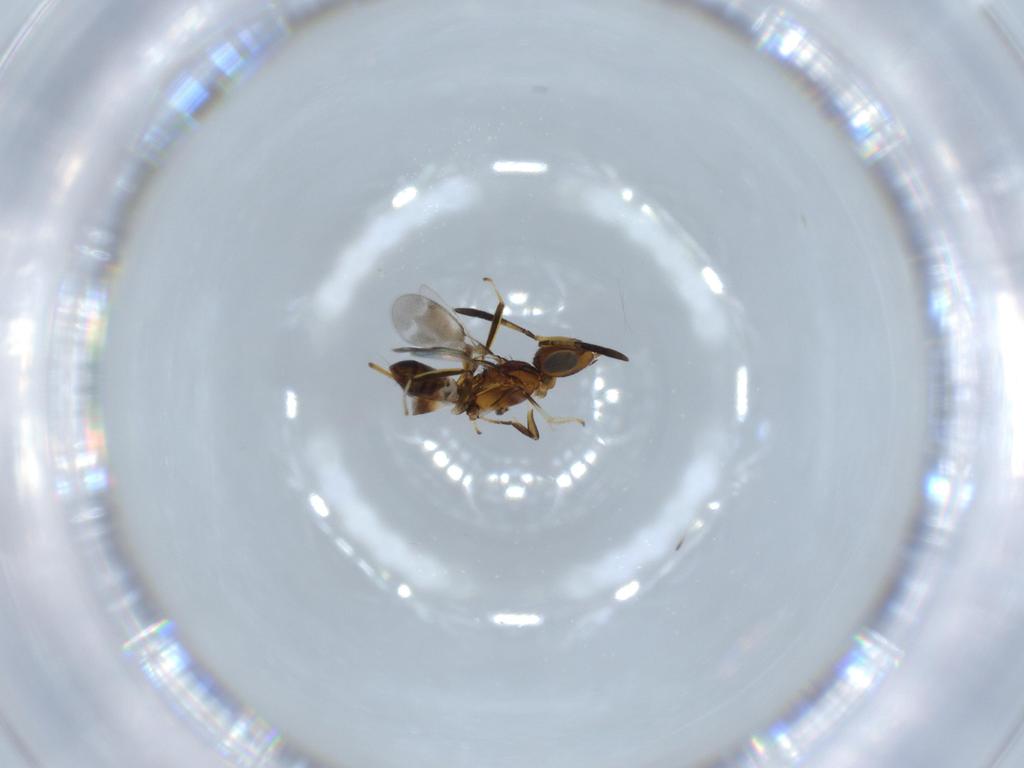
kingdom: Animalia
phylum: Arthropoda
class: Insecta
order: Hymenoptera
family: Eupelmidae
